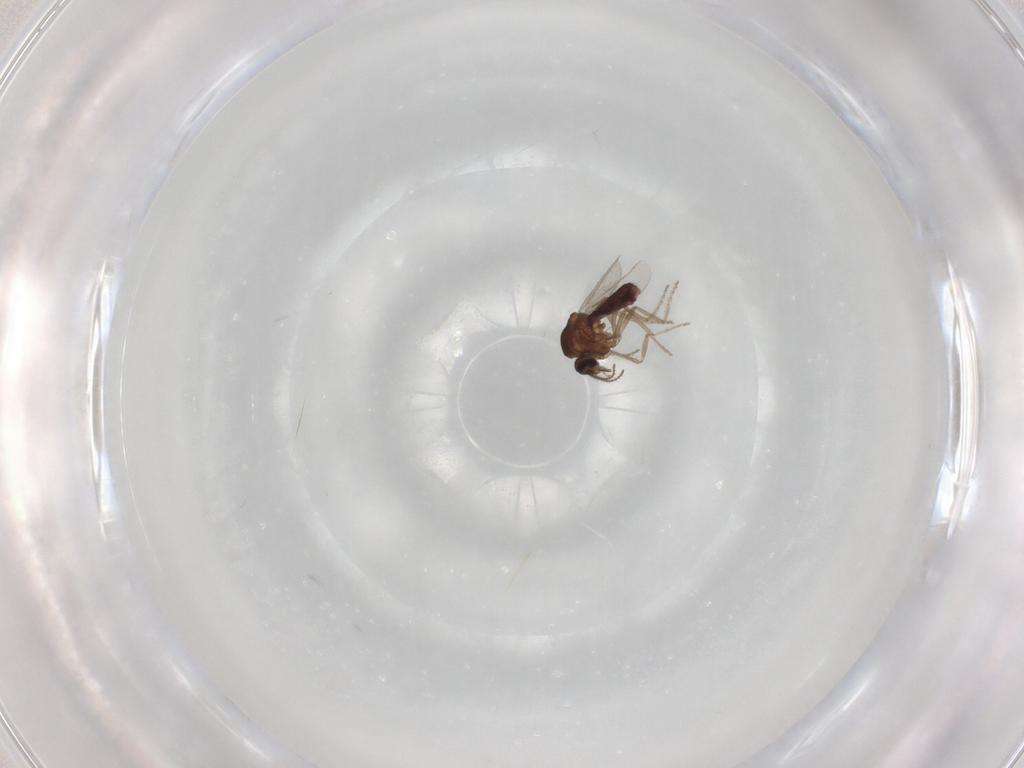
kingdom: Animalia
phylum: Arthropoda
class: Insecta
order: Diptera
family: Ceratopogonidae
